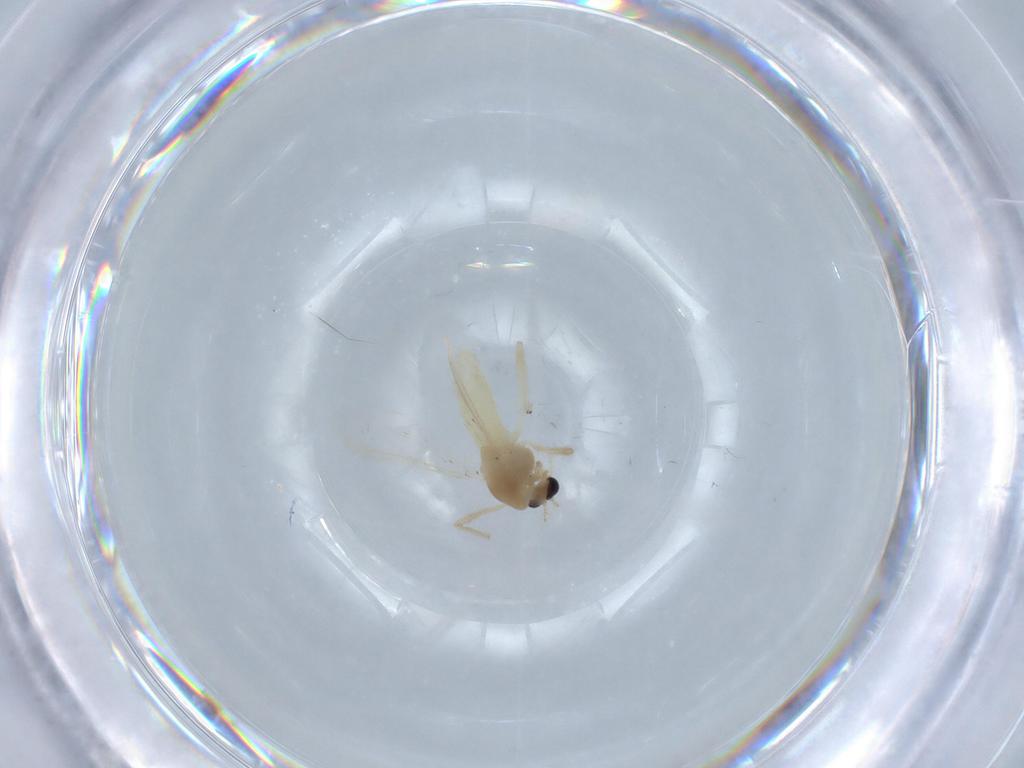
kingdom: Animalia
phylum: Arthropoda
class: Insecta
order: Diptera
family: Chironomidae
